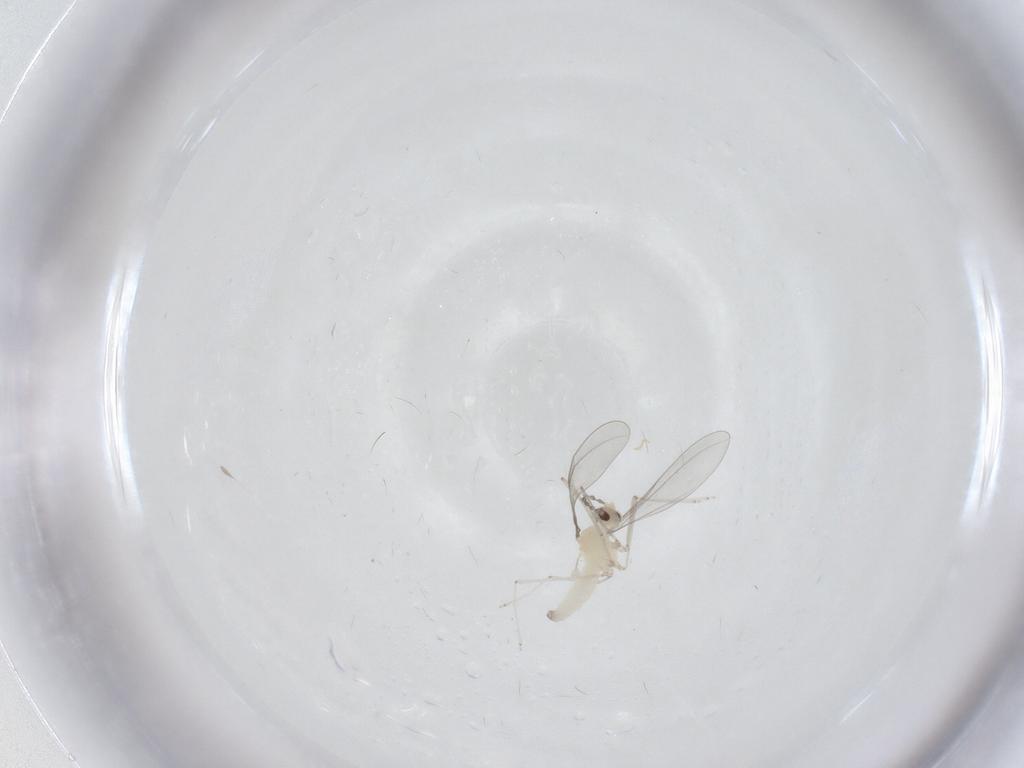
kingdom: Animalia
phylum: Arthropoda
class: Insecta
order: Diptera
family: Cecidomyiidae
